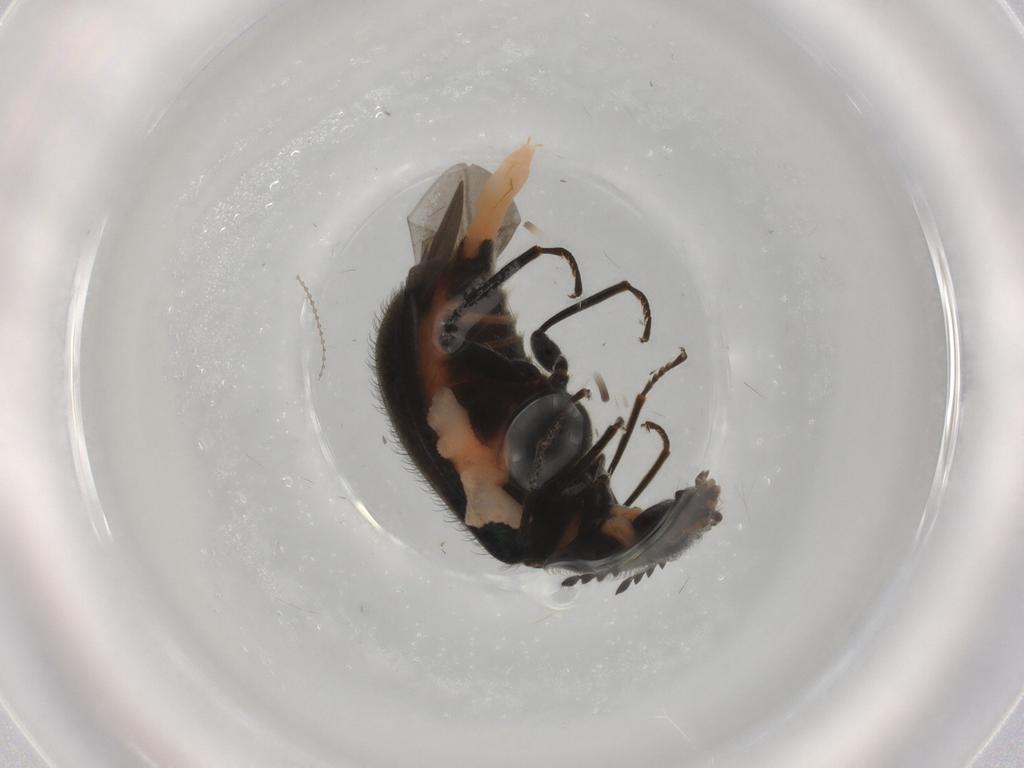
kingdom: Animalia
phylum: Arthropoda
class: Insecta
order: Coleoptera
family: Melyridae
